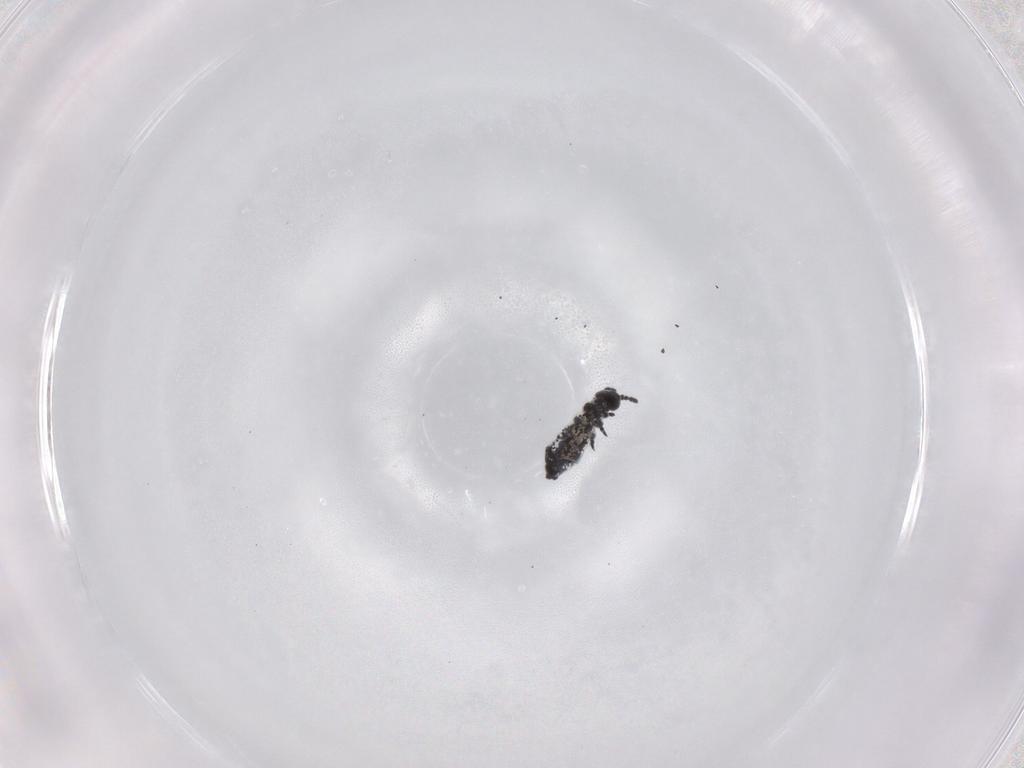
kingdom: Animalia
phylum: Arthropoda
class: Collembola
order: Poduromorpha
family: Hypogastruridae
